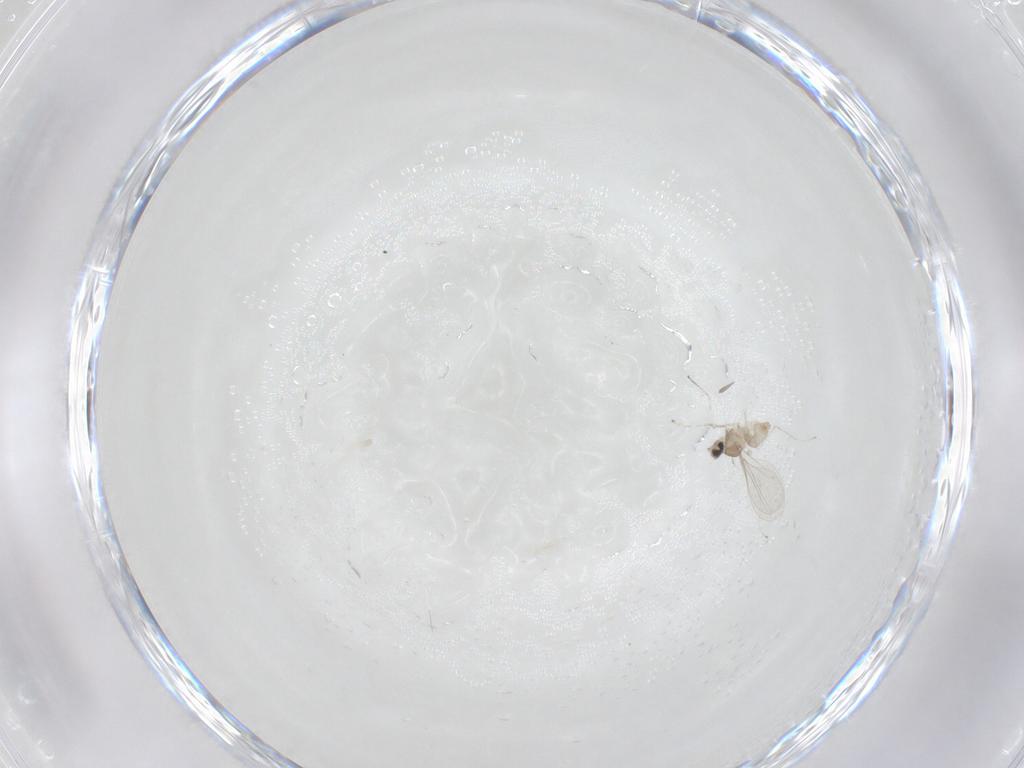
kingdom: Animalia
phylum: Arthropoda
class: Insecta
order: Diptera
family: Cecidomyiidae
